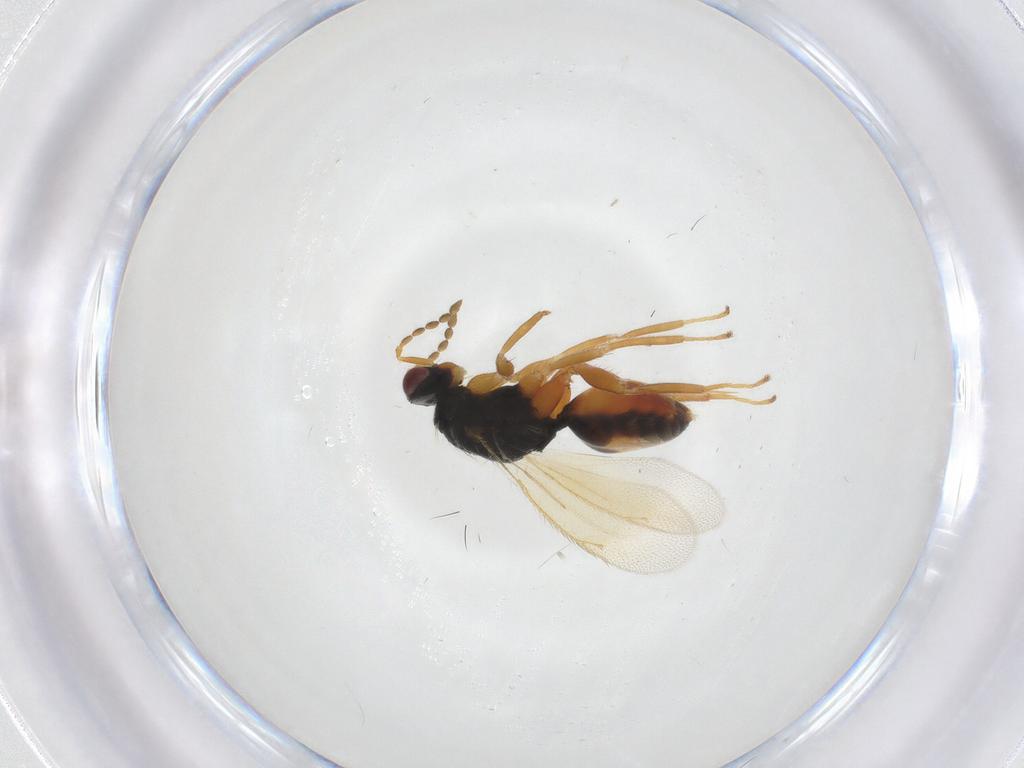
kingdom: Animalia
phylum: Arthropoda
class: Insecta
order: Hymenoptera
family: Eulophidae
